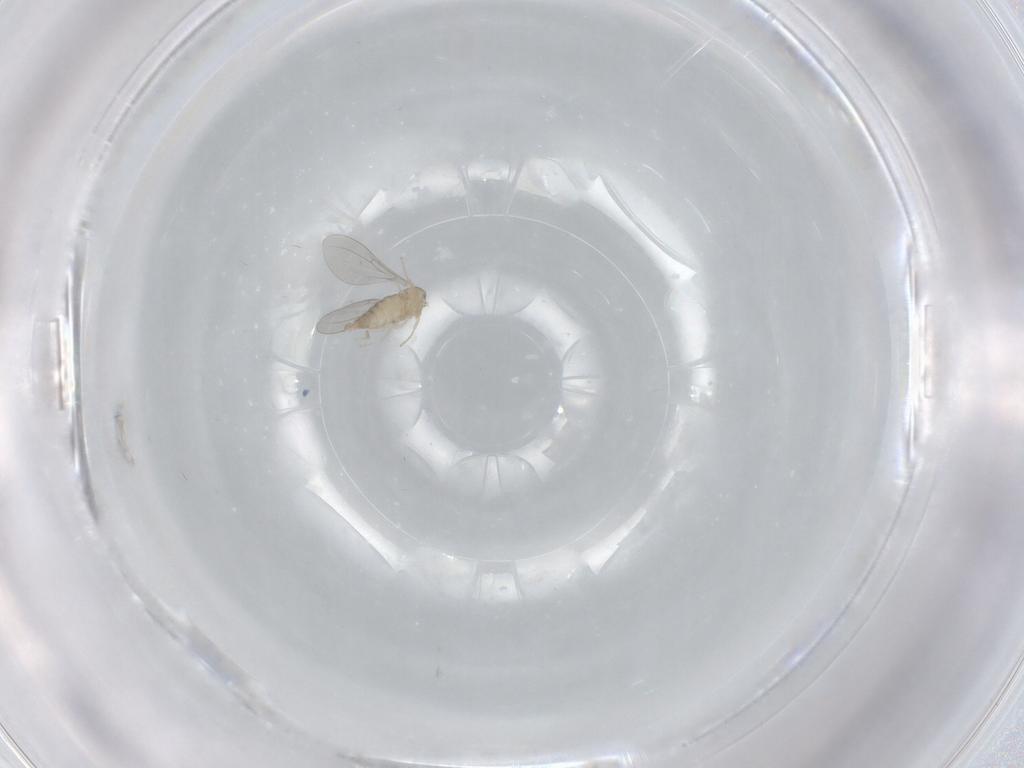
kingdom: Animalia
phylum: Arthropoda
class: Insecta
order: Diptera
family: Cecidomyiidae
